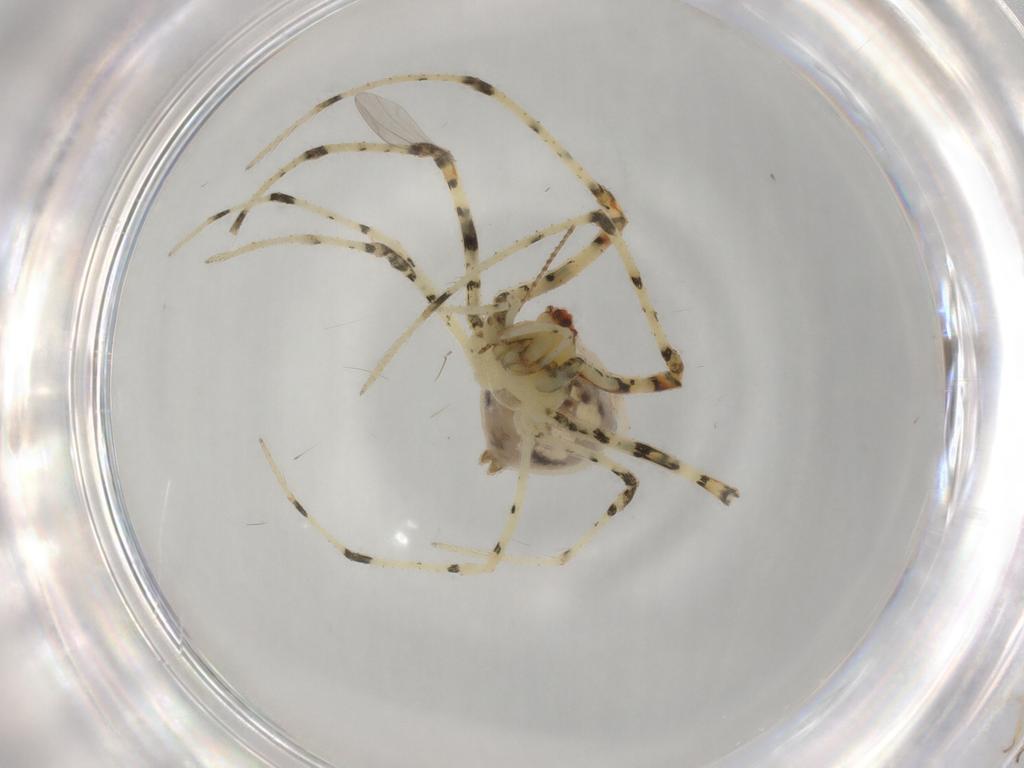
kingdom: Animalia
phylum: Arthropoda
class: Arachnida
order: Araneae
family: Mimetidae
